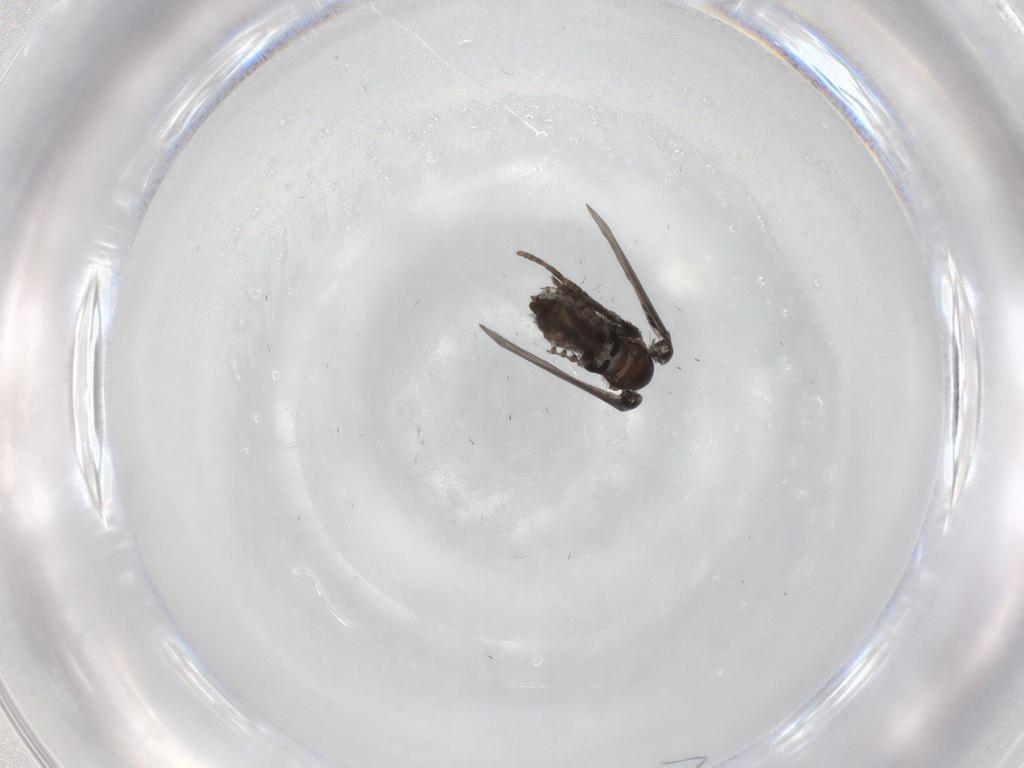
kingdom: Animalia
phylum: Arthropoda
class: Insecta
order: Diptera
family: Psychodidae
